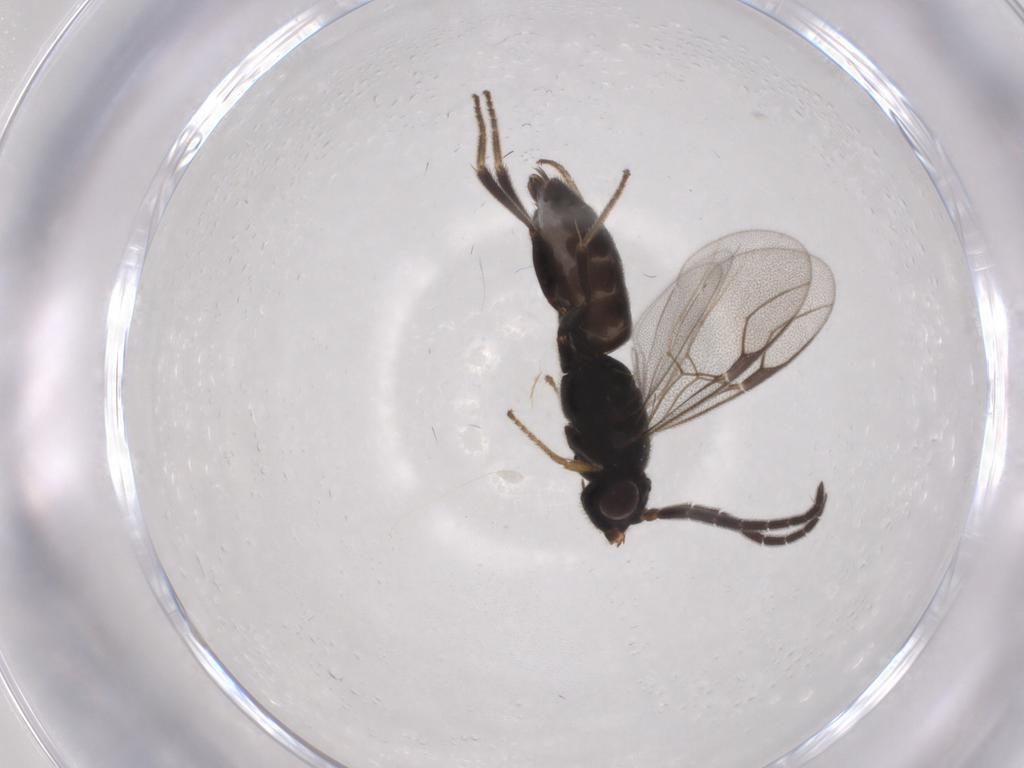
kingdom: Animalia
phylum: Arthropoda
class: Insecta
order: Hymenoptera
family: Dryinidae
